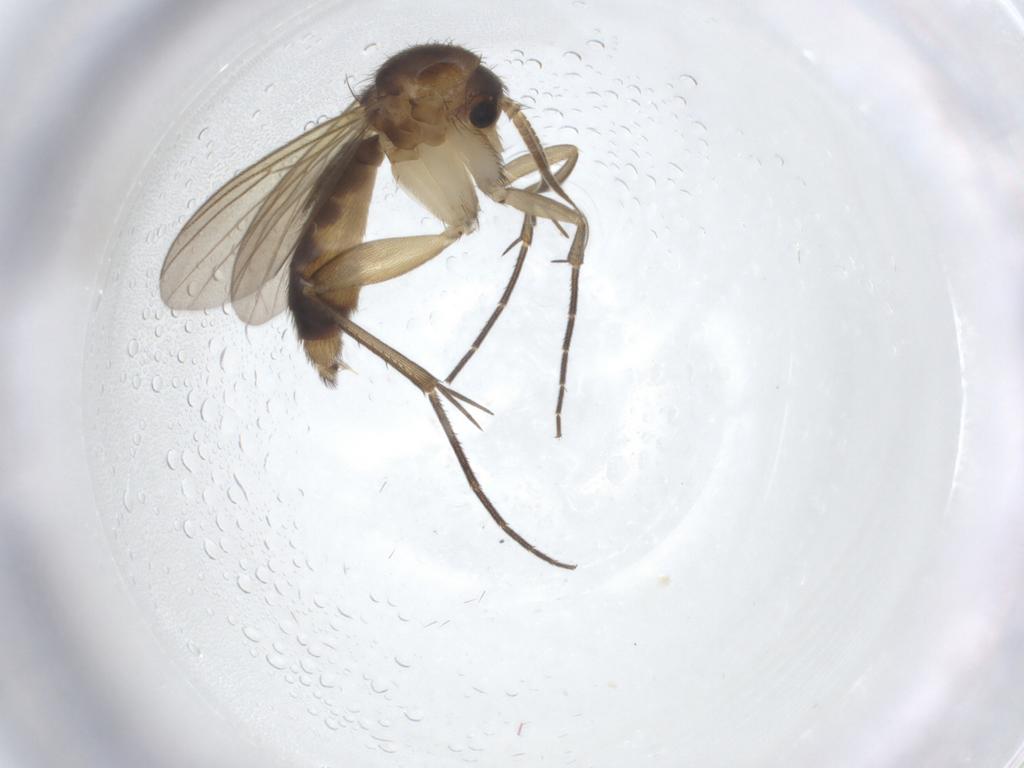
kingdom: Animalia
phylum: Arthropoda
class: Insecta
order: Diptera
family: Mycetophilidae
